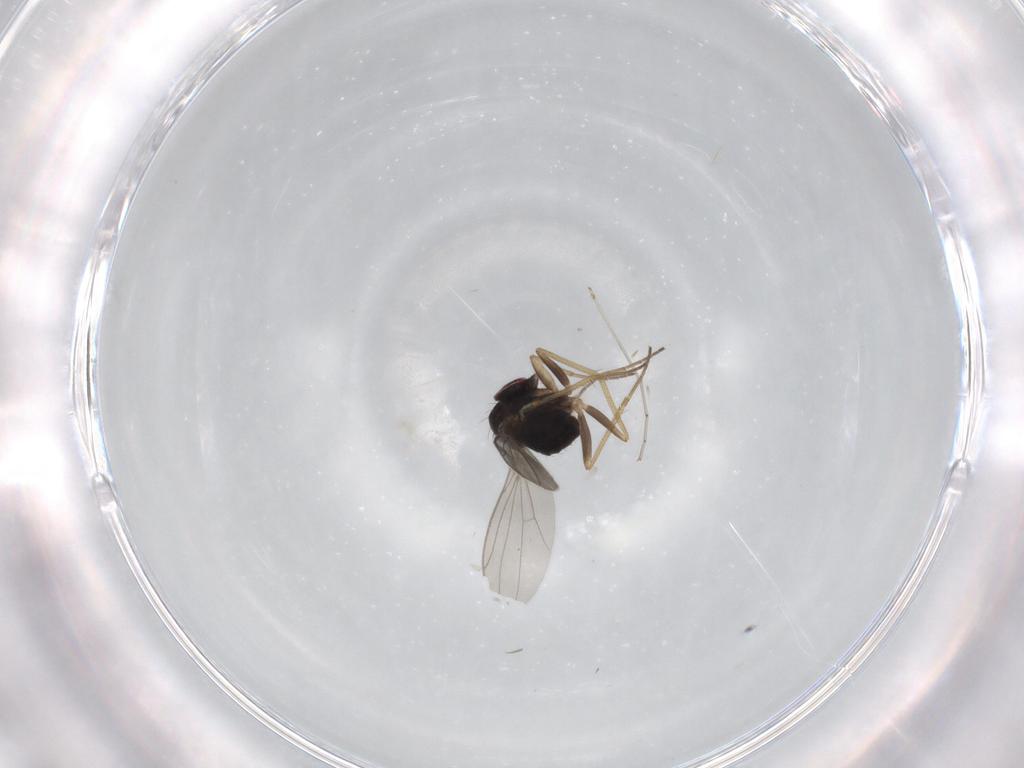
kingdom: Animalia
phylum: Arthropoda
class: Insecta
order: Diptera
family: Cecidomyiidae
